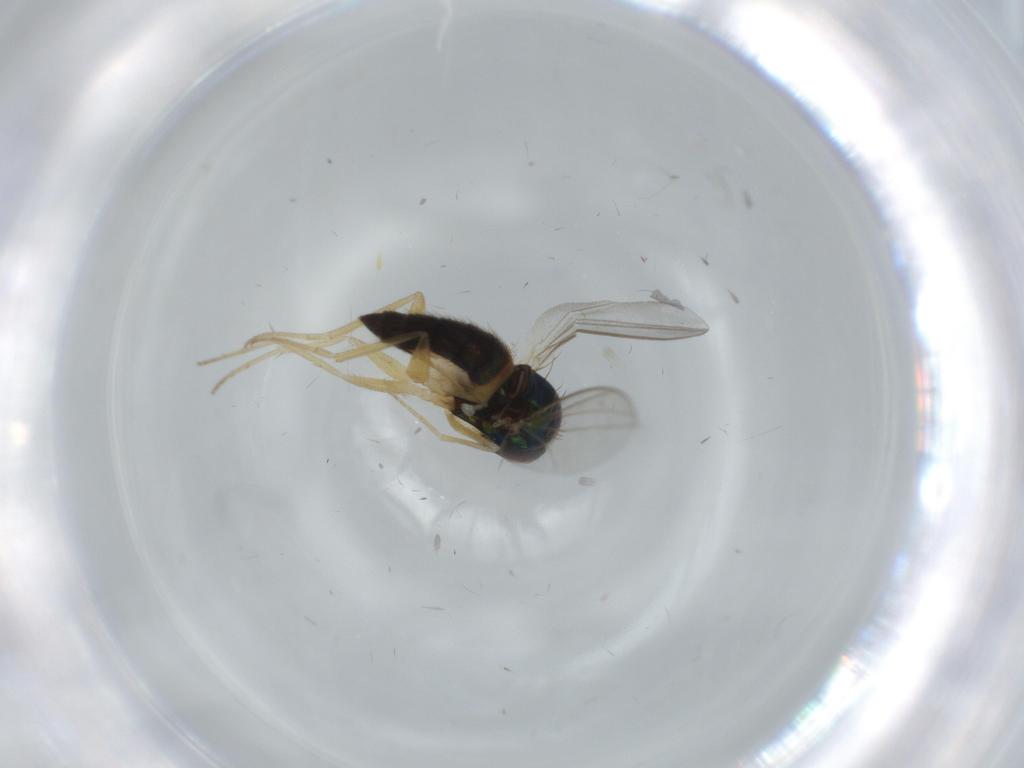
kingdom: Animalia
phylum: Arthropoda
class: Insecta
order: Diptera
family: Dolichopodidae
